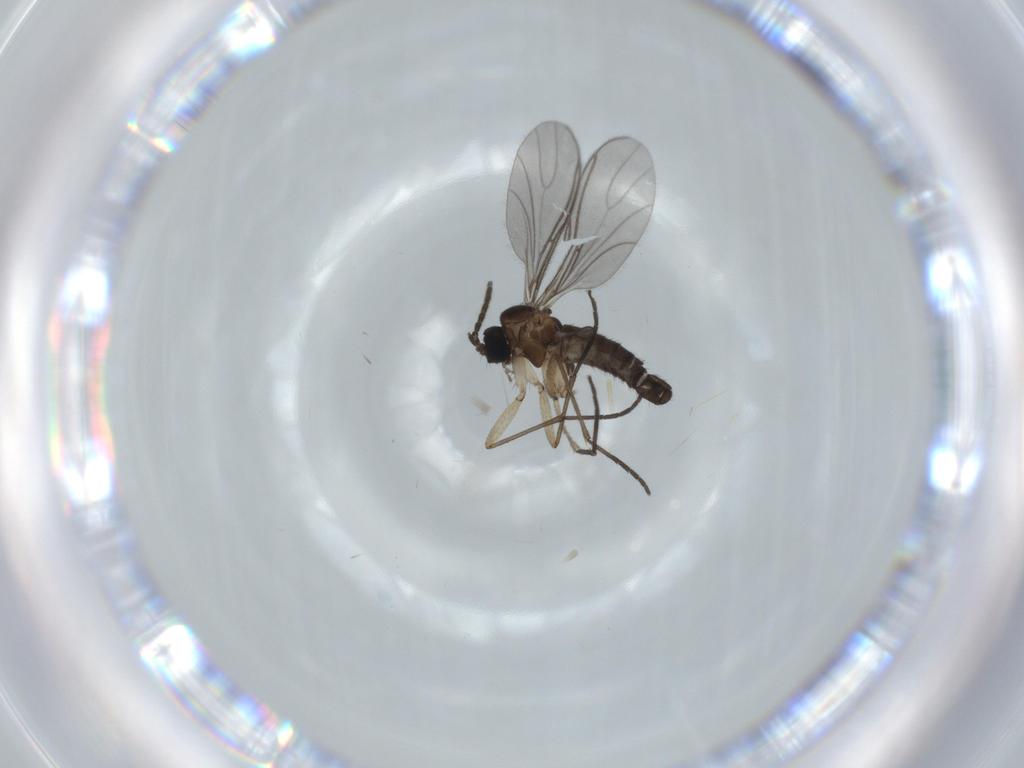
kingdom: Animalia
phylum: Arthropoda
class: Insecta
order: Diptera
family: Sciaridae
